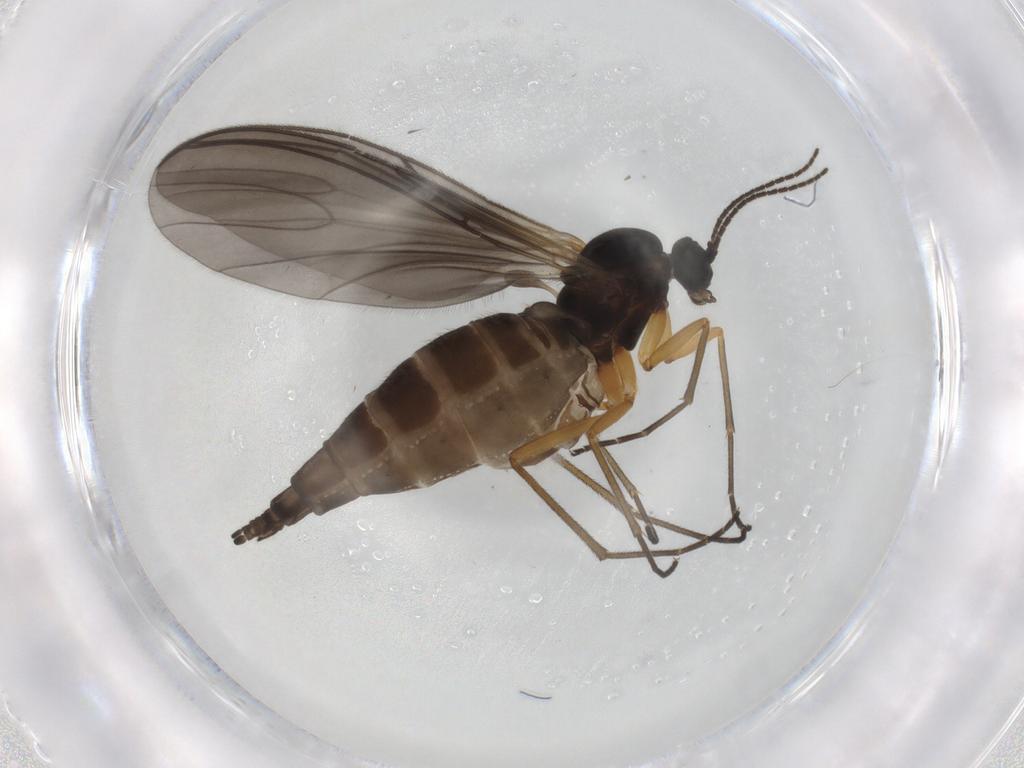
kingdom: Animalia
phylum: Arthropoda
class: Insecta
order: Diptera
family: Sciaridae
